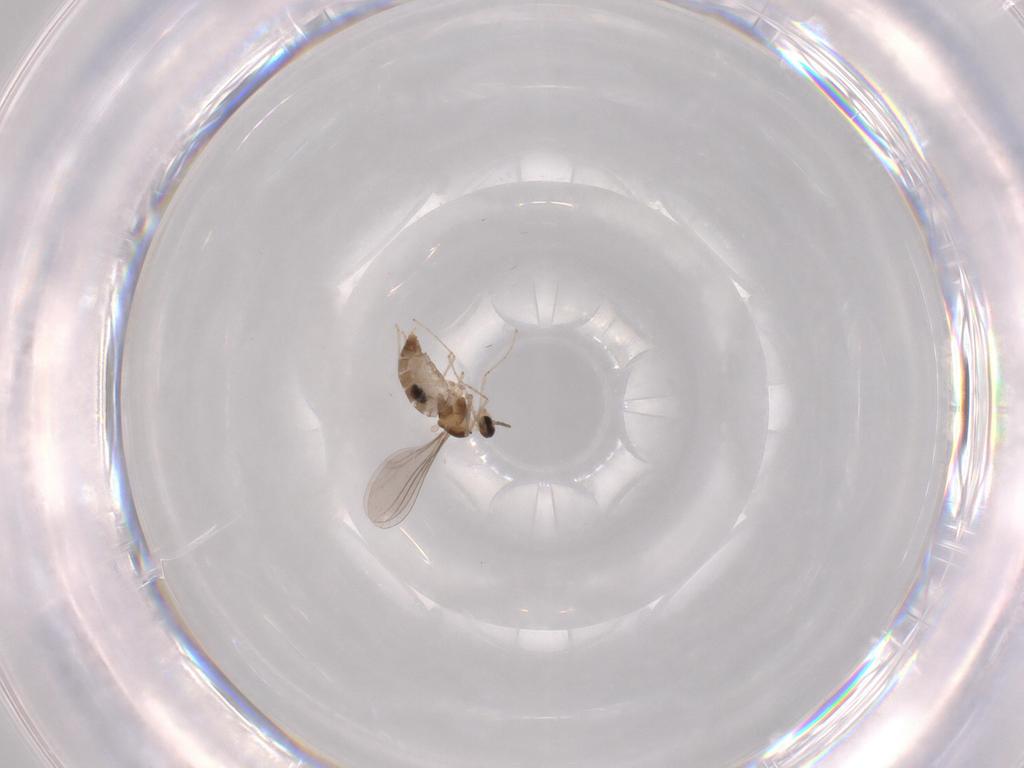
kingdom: Animalia
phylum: Arthropoda
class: Insecta
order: Diptera
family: Cecidomyiidae
